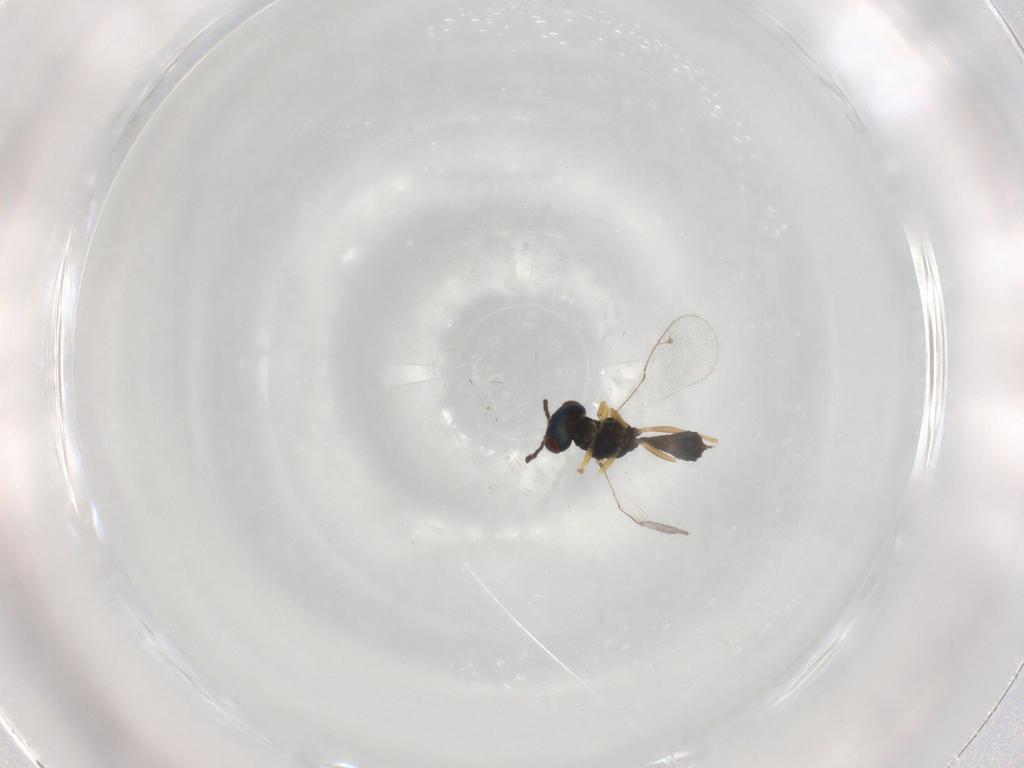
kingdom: Animalia
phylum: Arthropoda
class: Insecta
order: Hymenoptera
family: Pteromalidae
